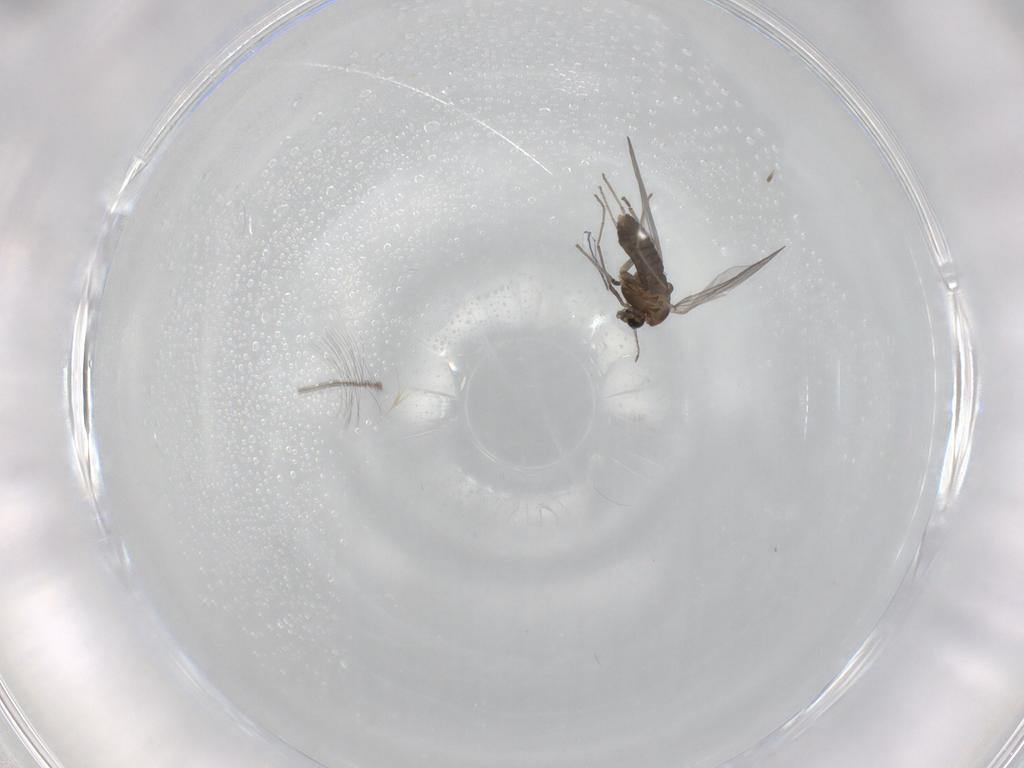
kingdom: Animalia
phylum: Arthropoda
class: Insecta
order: Diptera
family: Chironomidae
